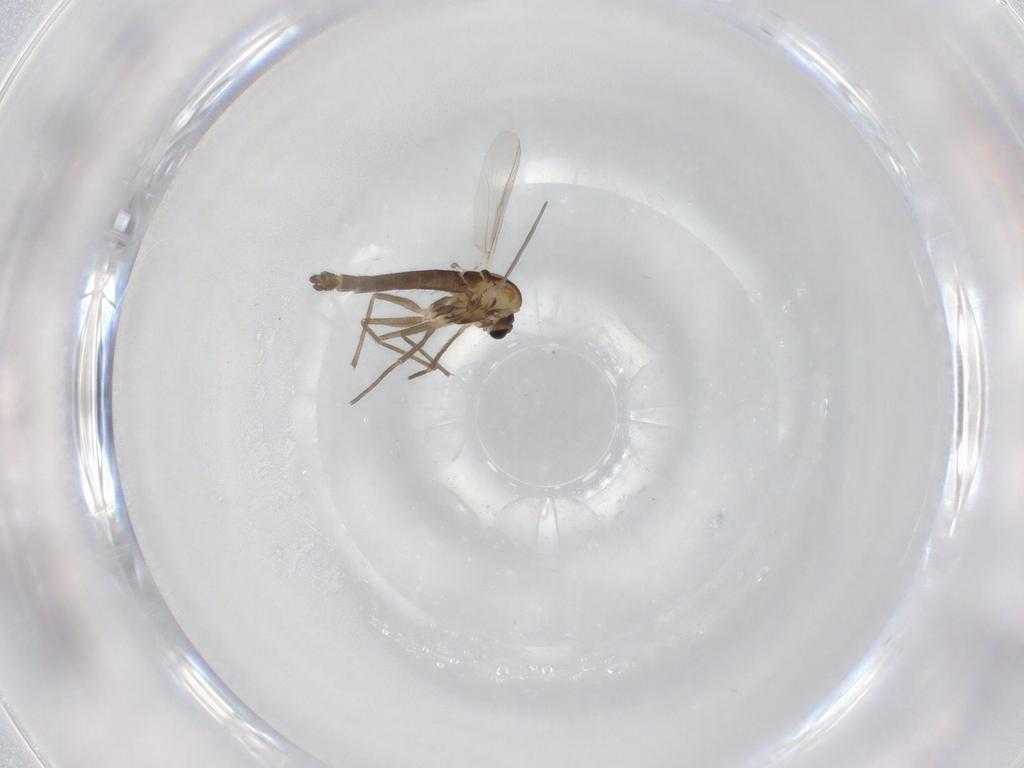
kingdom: Animalia
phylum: Arthropoda
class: Insecta
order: Diptera
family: Chironomidae
